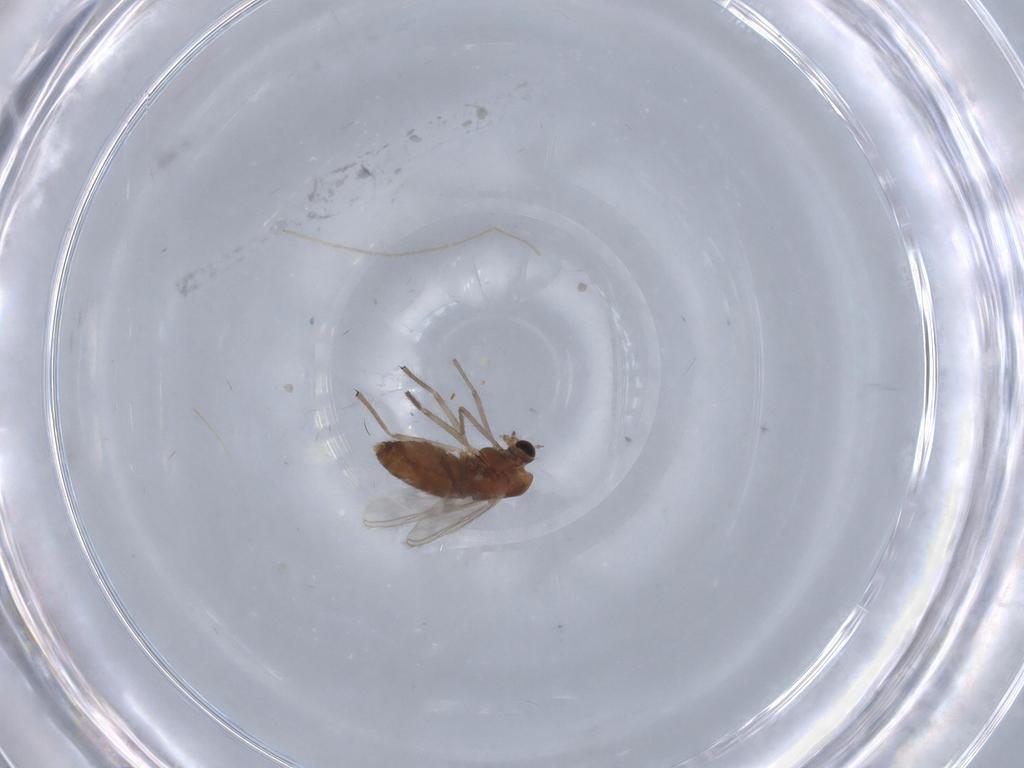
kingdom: Animalia
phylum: Arthropoda
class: Insecta
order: Diptera
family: Chironomidae
